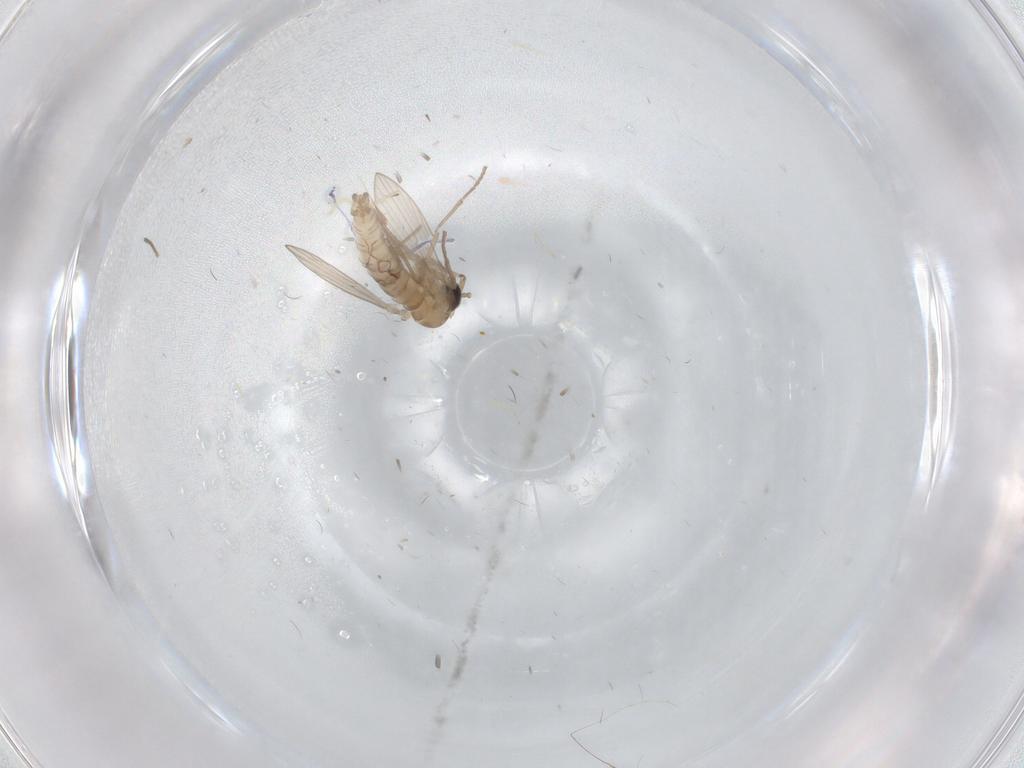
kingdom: Animalia
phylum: Arthropoda
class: Insecta
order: Diptera
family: Psychodidae
